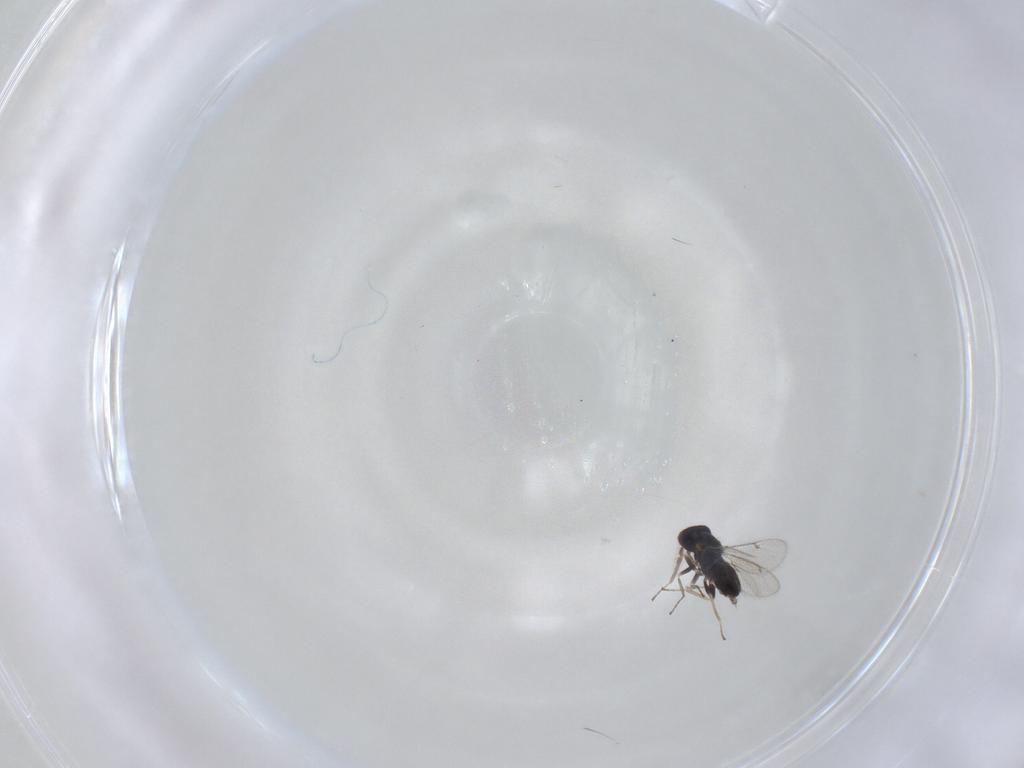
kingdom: Animalia
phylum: Arthropoda
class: Insecta
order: Hymenoptera
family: Eulophidae
